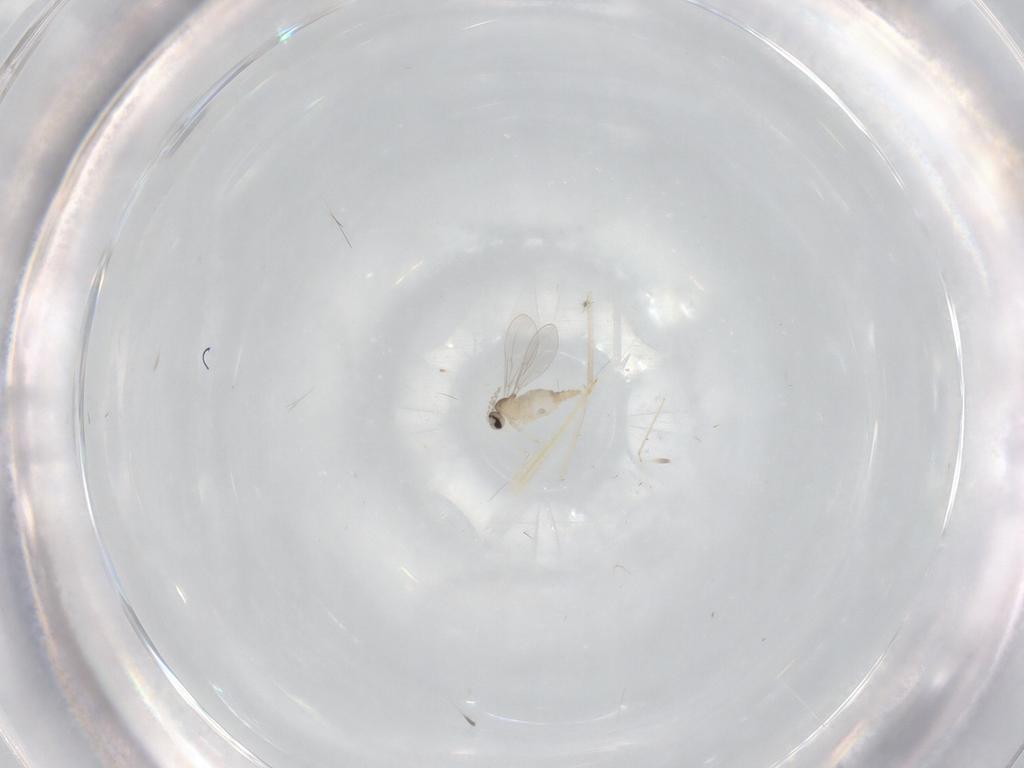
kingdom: Animalia
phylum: Arthropoda
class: Insecta
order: Diptera
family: Cecidomyiidae
